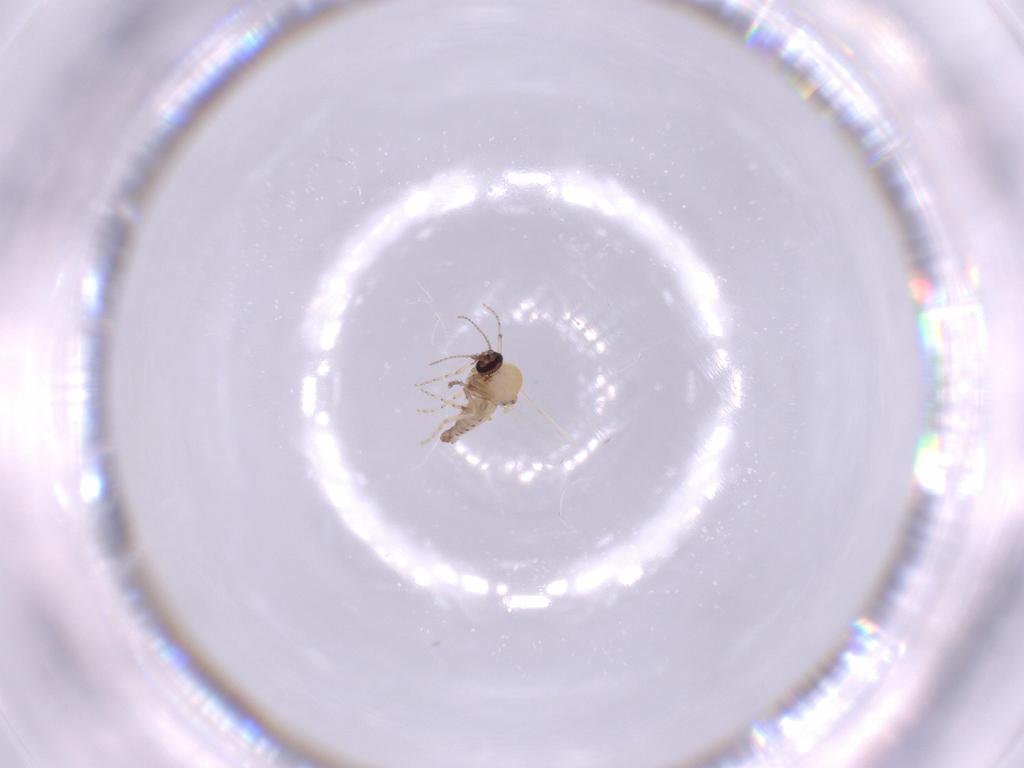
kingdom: Animalia
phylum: Arthropoda
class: Insecta
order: Diptera
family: Ceratopogonidae
